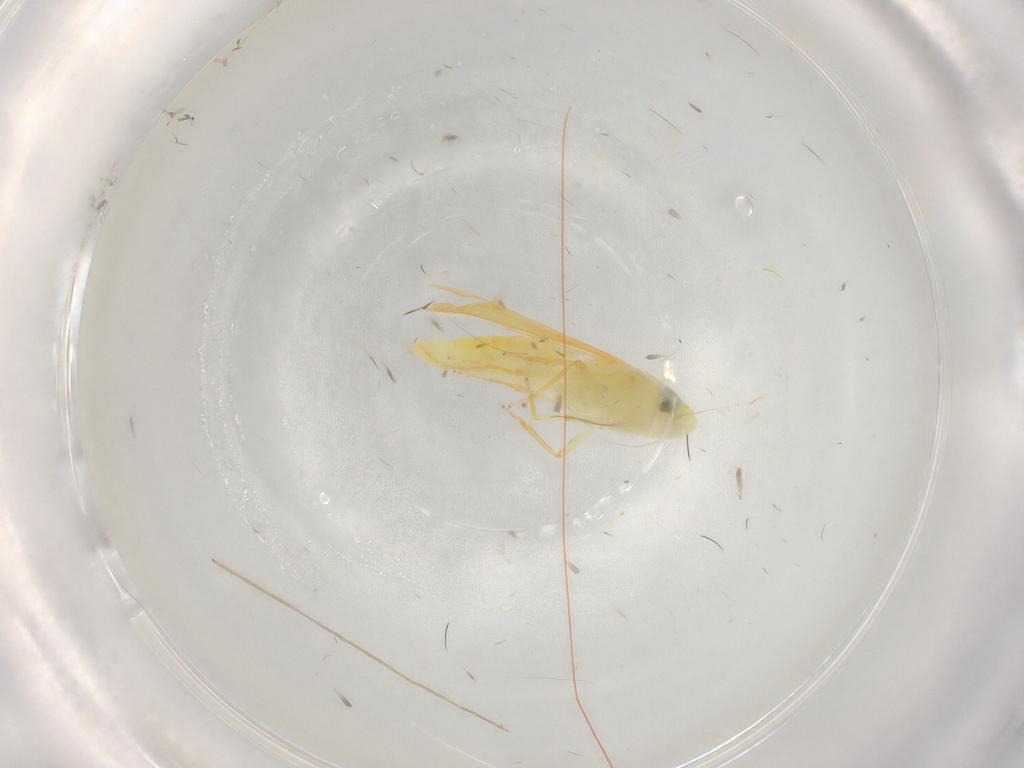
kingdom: Animalia
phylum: Arthropoda
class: Insecta
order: Hemiptera
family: Cicadellidae
